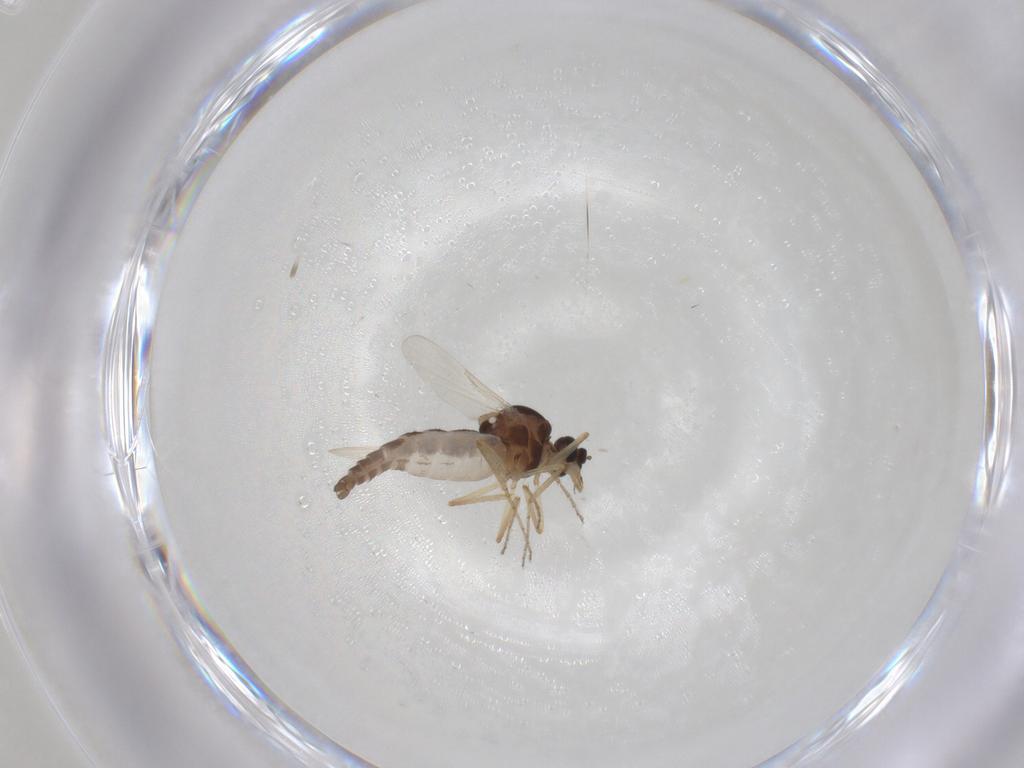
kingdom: Animalia
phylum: Arthropoda
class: Insecta
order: Diptera
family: Ceratopogonidae
